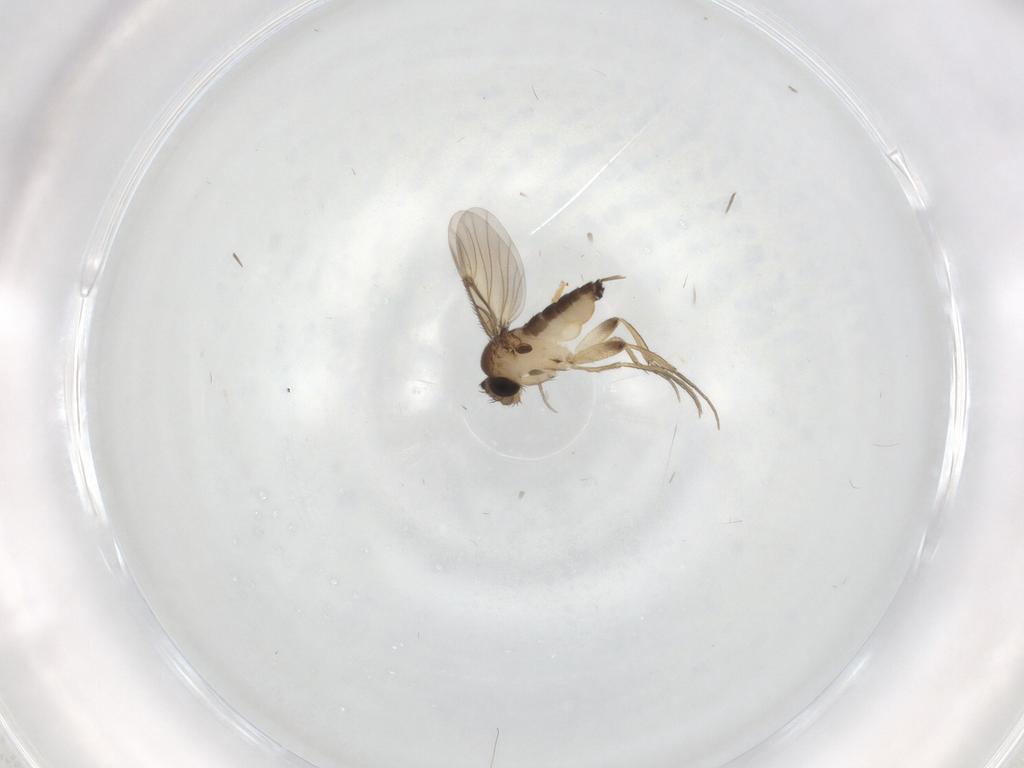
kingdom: Animalia
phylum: Arthropoda
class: Insecta
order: Diptera
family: Phoridae
